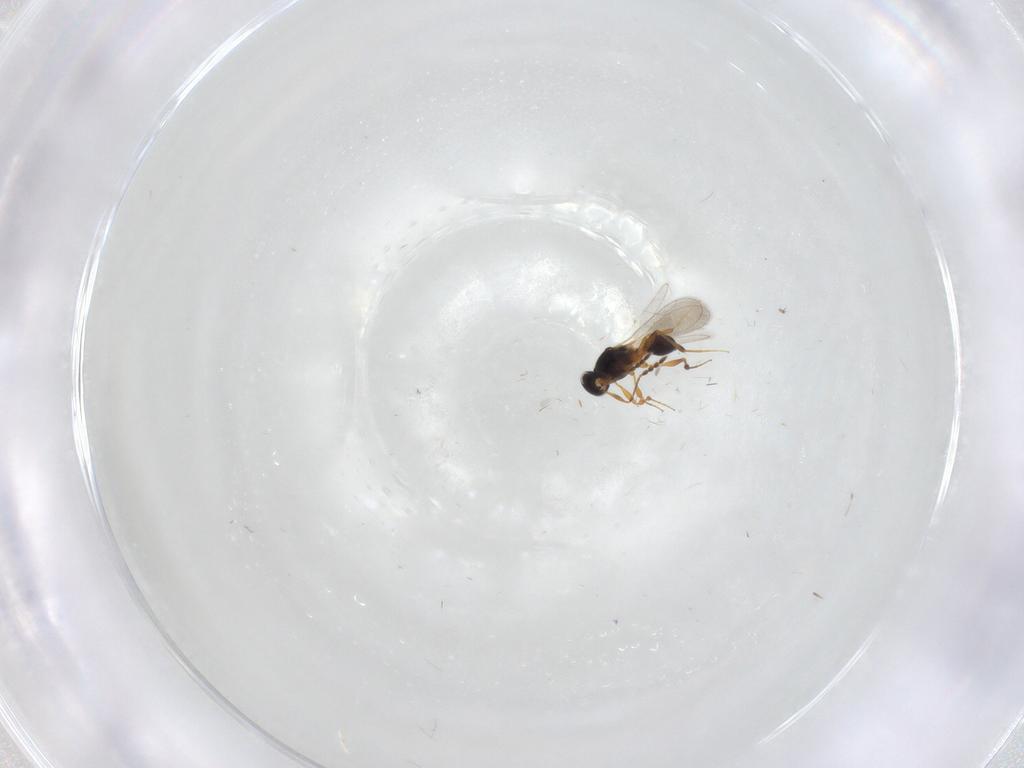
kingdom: Animalia
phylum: Arthropoda
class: Insecta
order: Hymenoptera
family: Platygastridae
